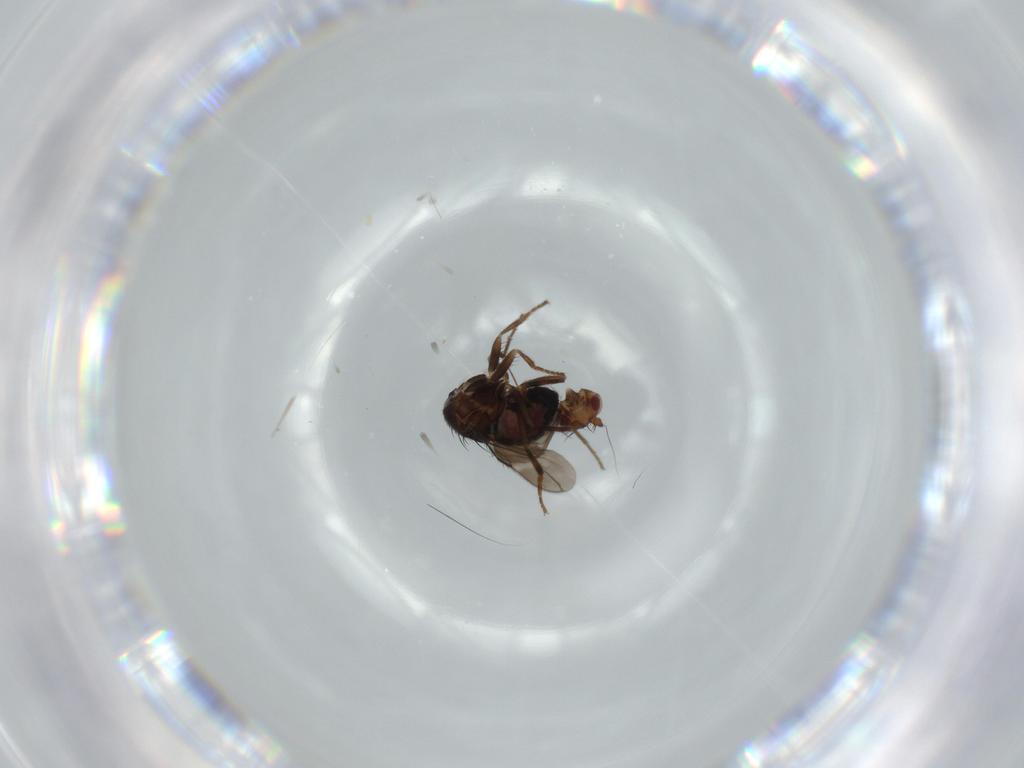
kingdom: Animalia
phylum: Arthropoda
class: Insecta
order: Diptera
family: Sphaeroceridae
